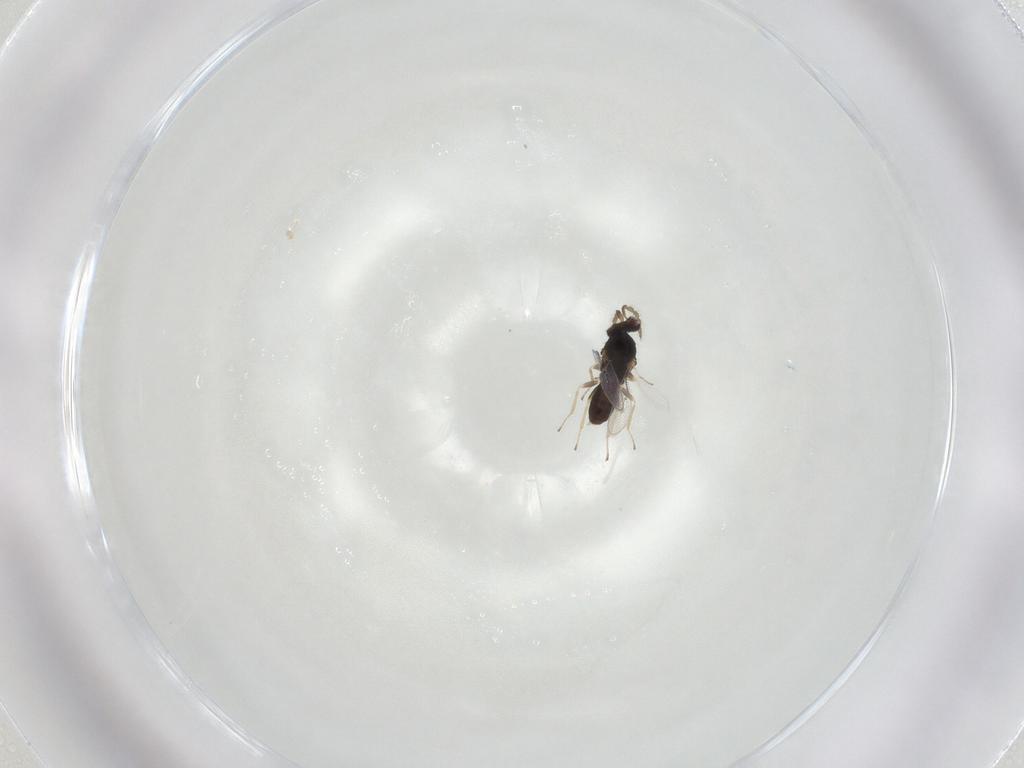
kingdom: Animalia
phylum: Arthropoda
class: Insecta
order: Hymenoptera
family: Eulophidae
